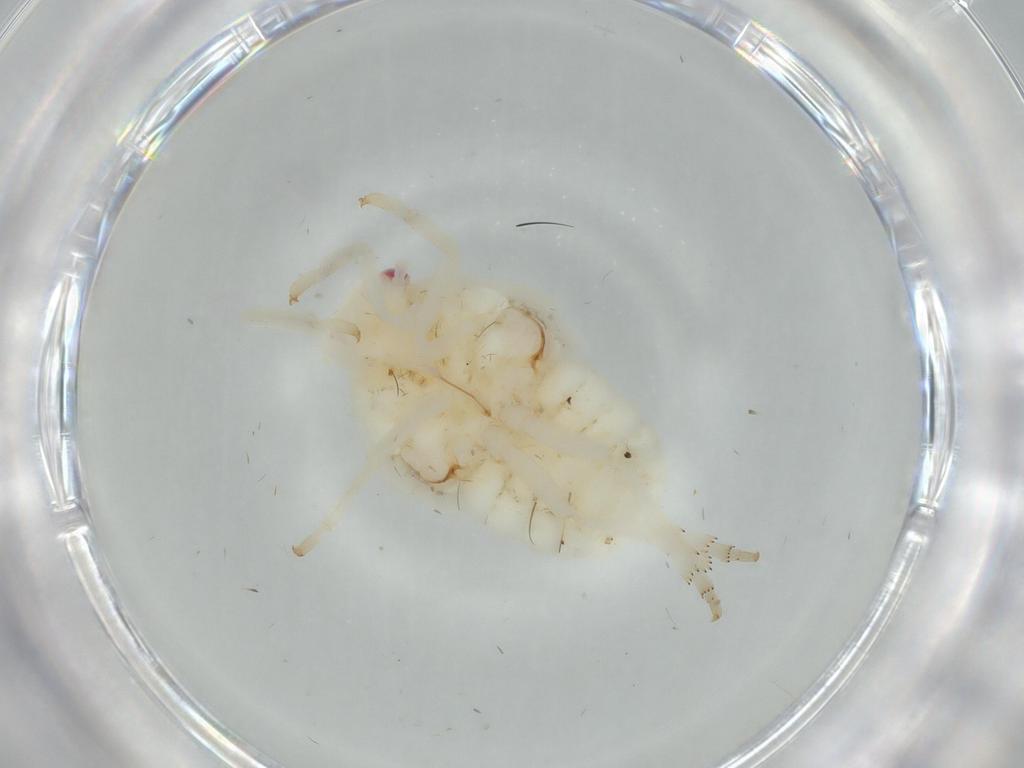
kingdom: Animalia
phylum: Arthropoda
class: Insecta
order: Hemiptera
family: Flatidae
